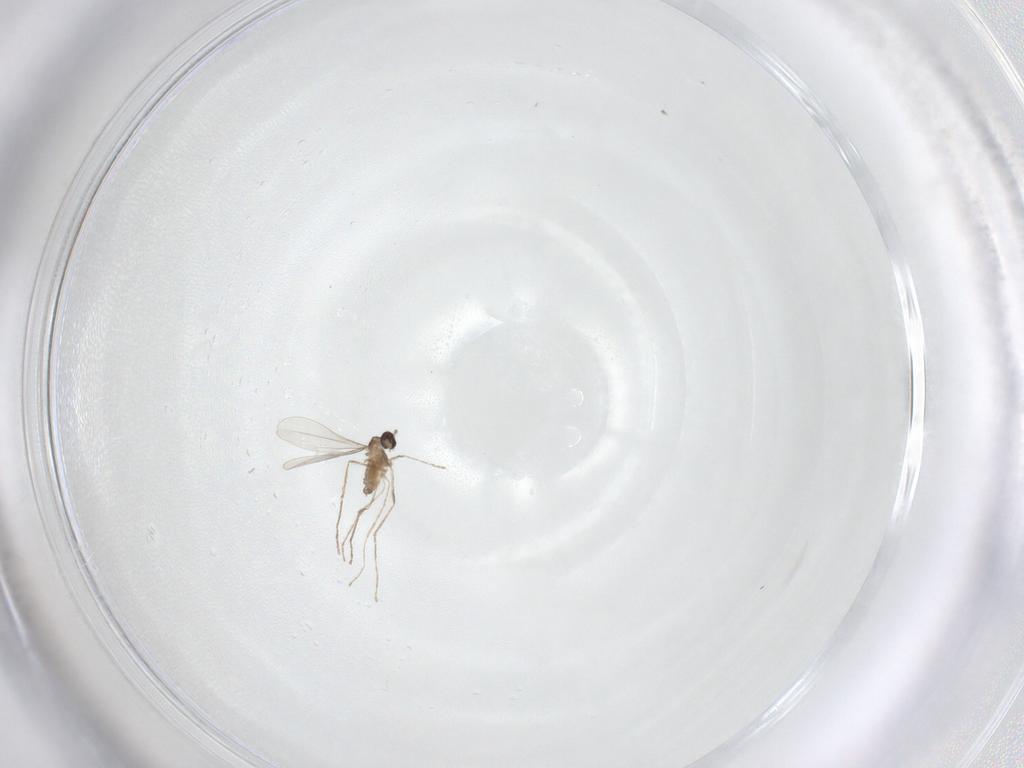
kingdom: Animalia
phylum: Arthropoda
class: Insecta
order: Diptera
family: Cecidomyiidae
